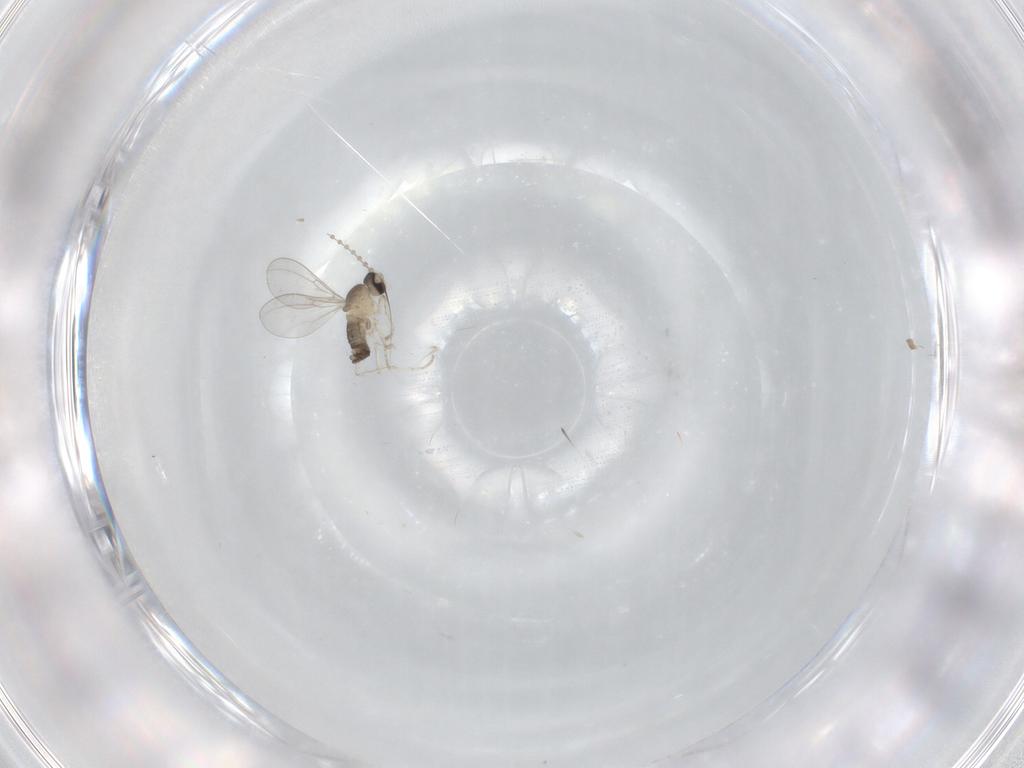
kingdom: Animalia
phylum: Arthropoda
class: Insecta
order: Diptera
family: Cecidomyiidae
